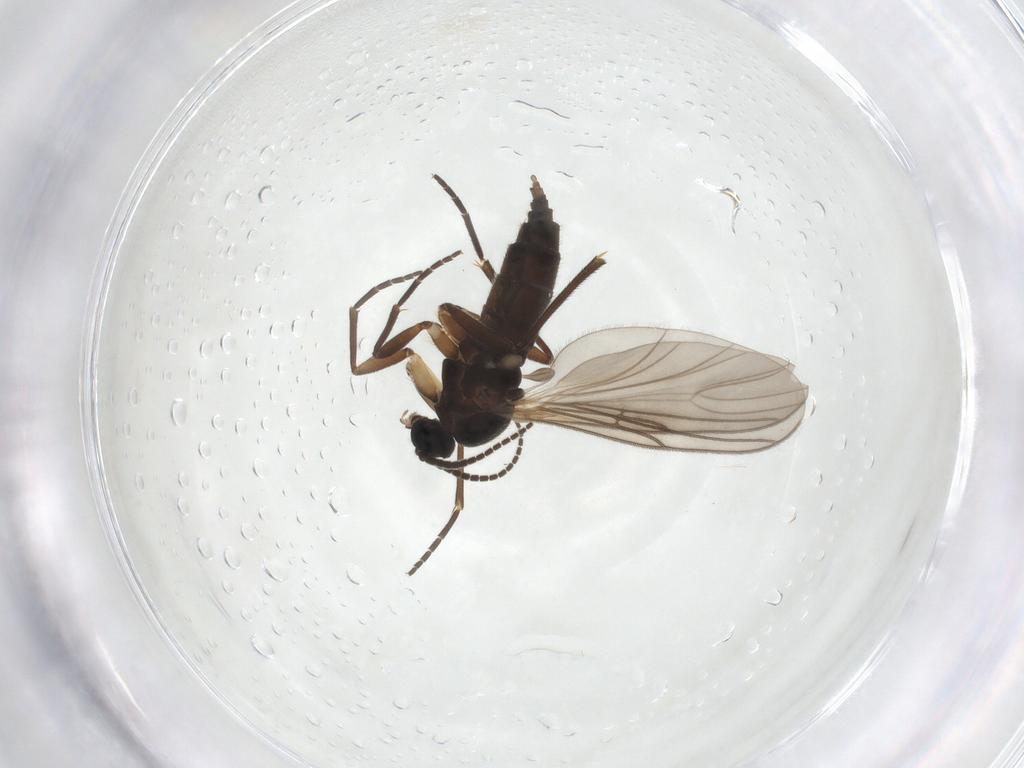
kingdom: Animalia
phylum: Arthropoda
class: Insecta
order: Diptera
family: Sciaridae
